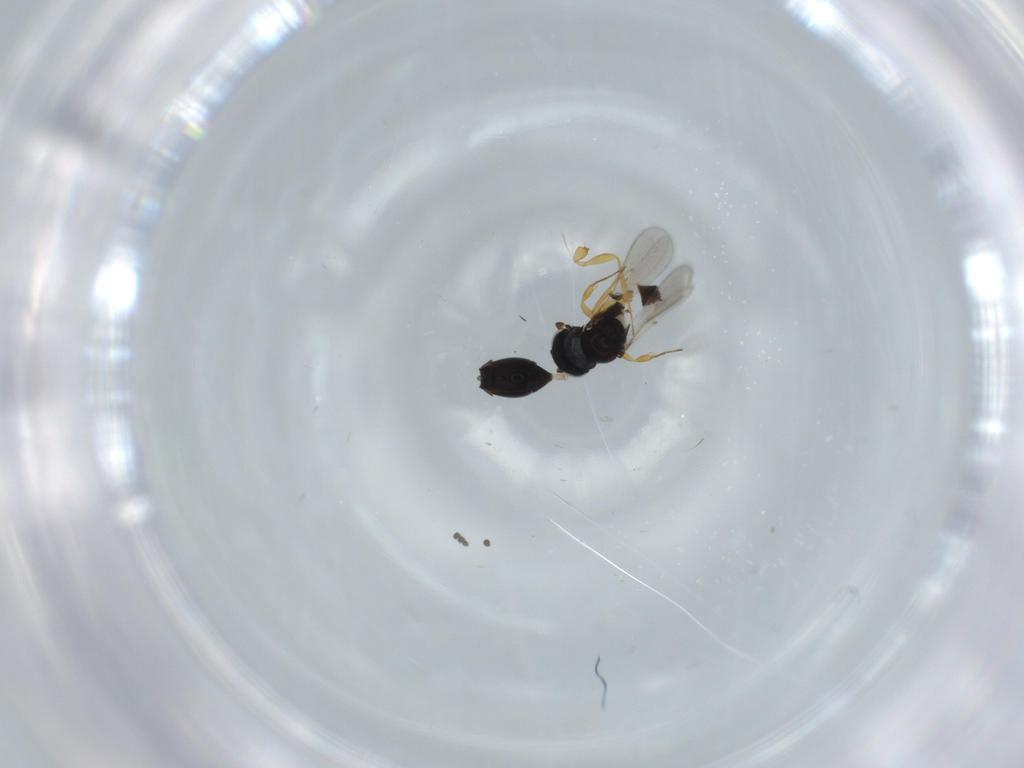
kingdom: Animalia
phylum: Arthropoda
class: Insecta
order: Hymenoptera
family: Scelionidae
